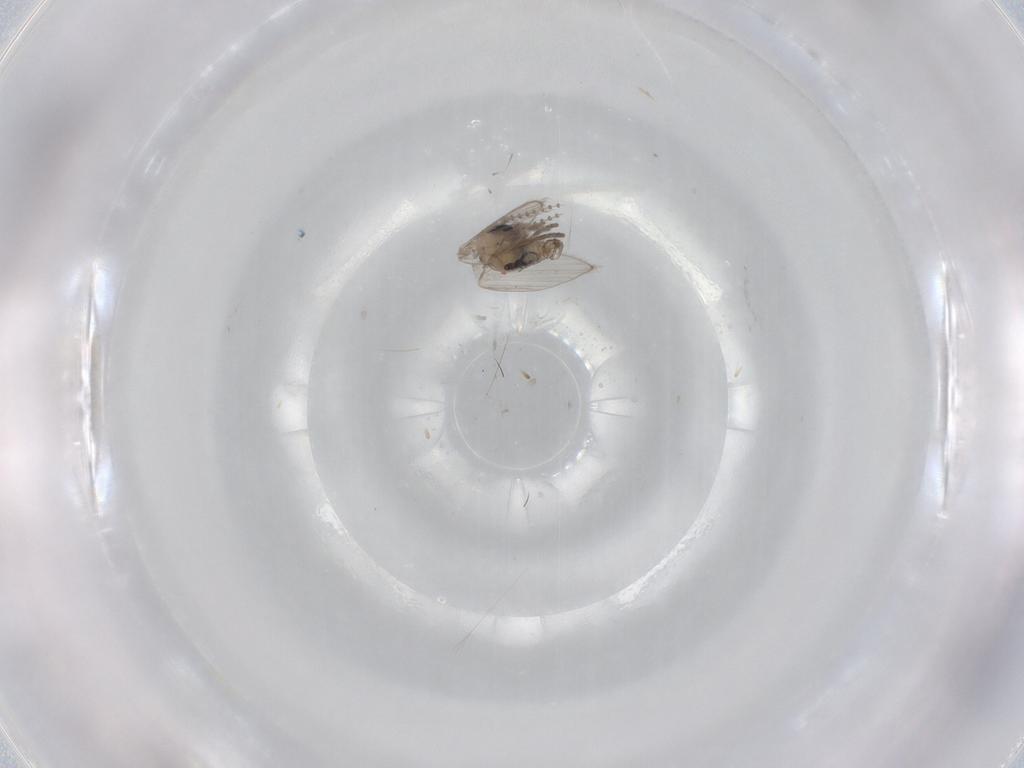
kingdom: Animalia
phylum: Arthropoda
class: Insecta
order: Diptera
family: Psychodidae
